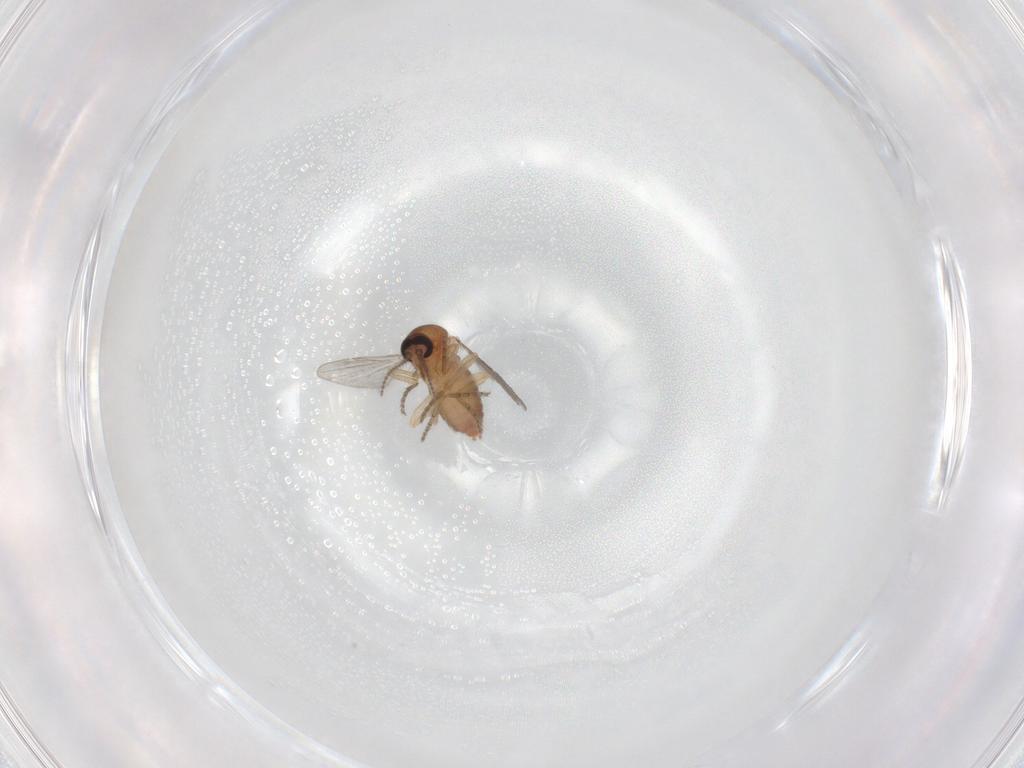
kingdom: Animalia
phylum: Arthropoda
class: Insecta
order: Diptera
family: Ceratopogonidae
